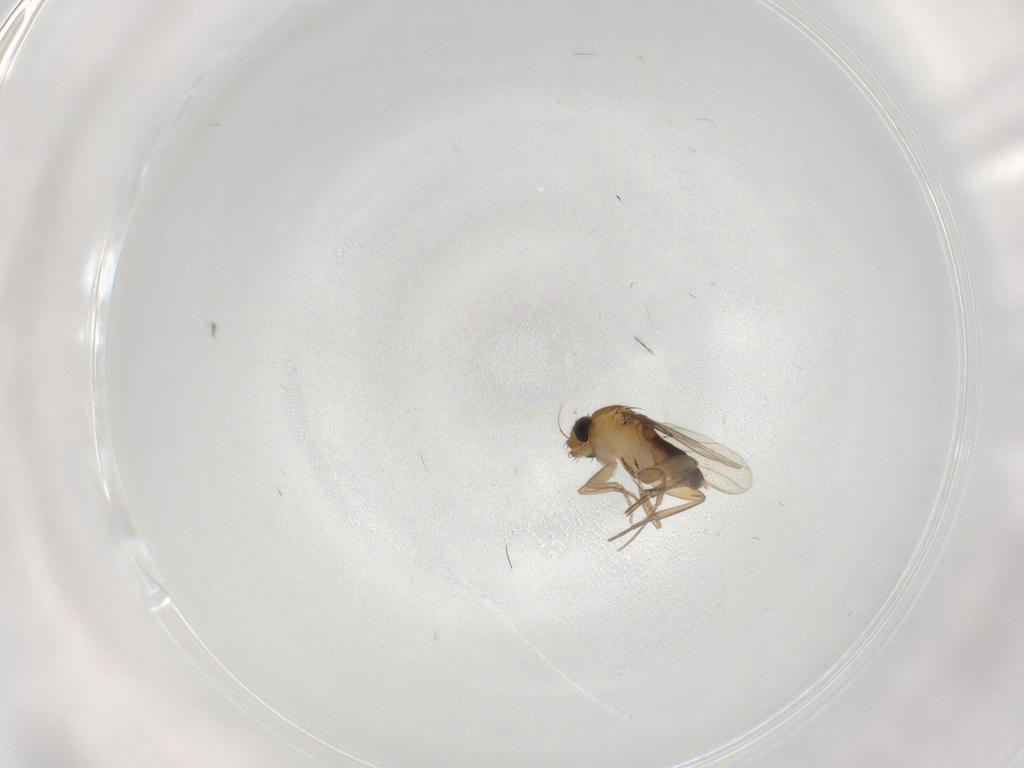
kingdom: Animalia
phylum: Arthropoda
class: Insecta
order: Diptera
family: Phoridae
